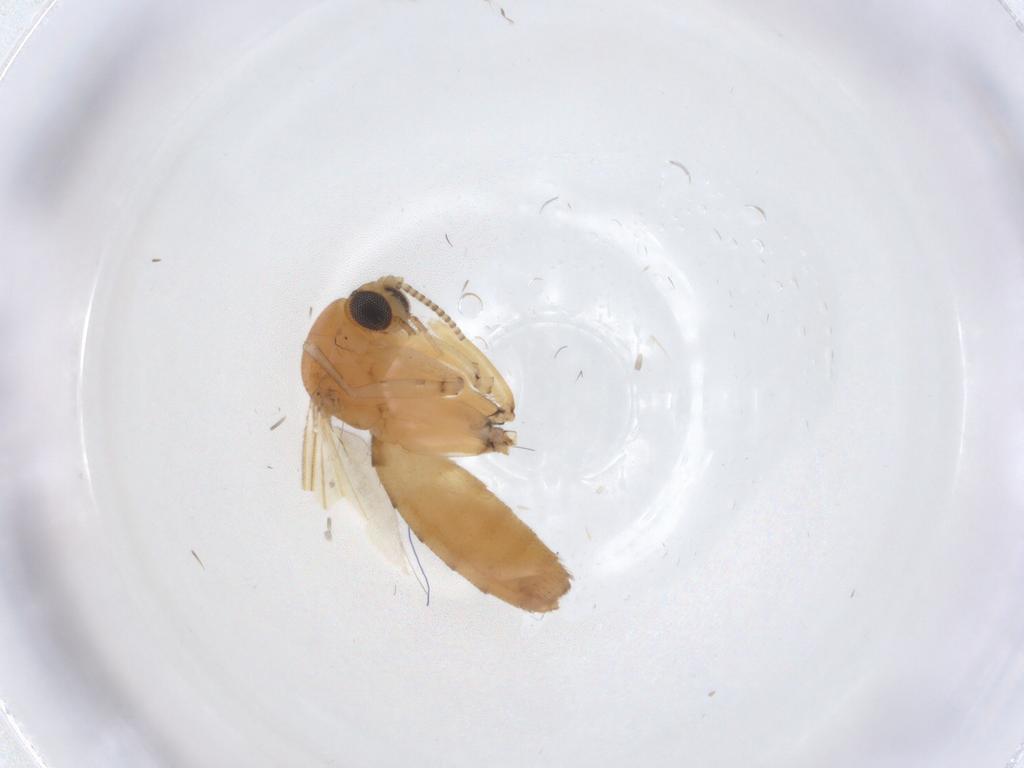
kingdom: Animalia
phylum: Arthropoda
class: Insecta
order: Diptera
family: Mycetophilidae
